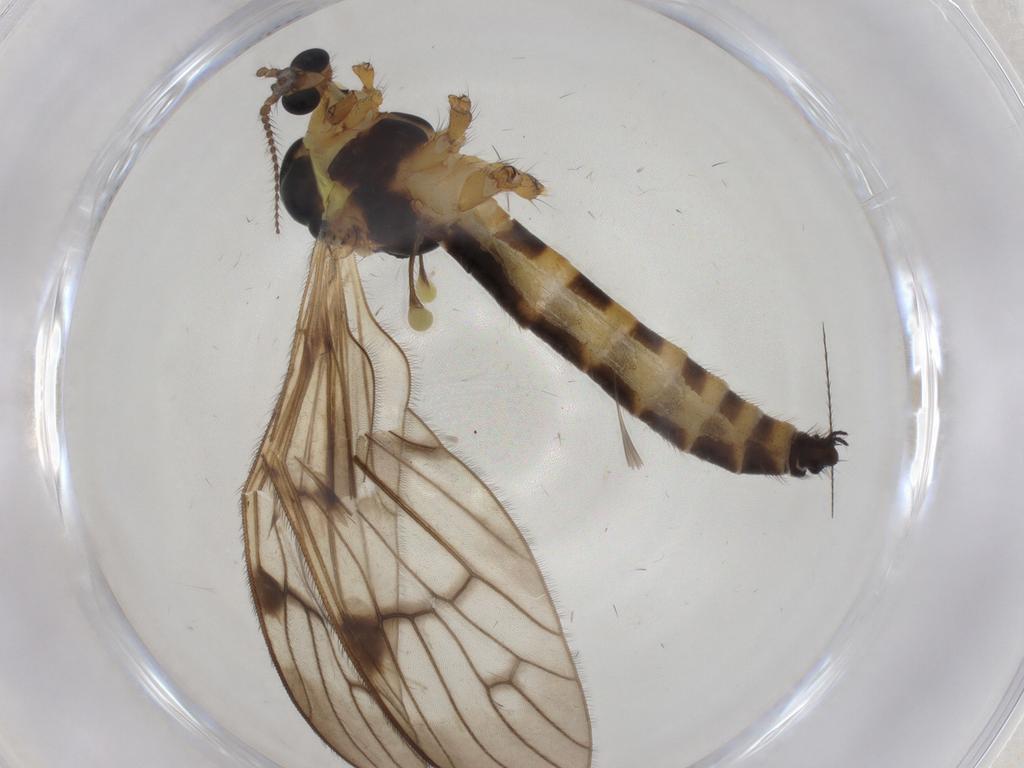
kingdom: Animalia
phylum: Arthropoda
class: Insecta
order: Diptera
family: Limoniidae
